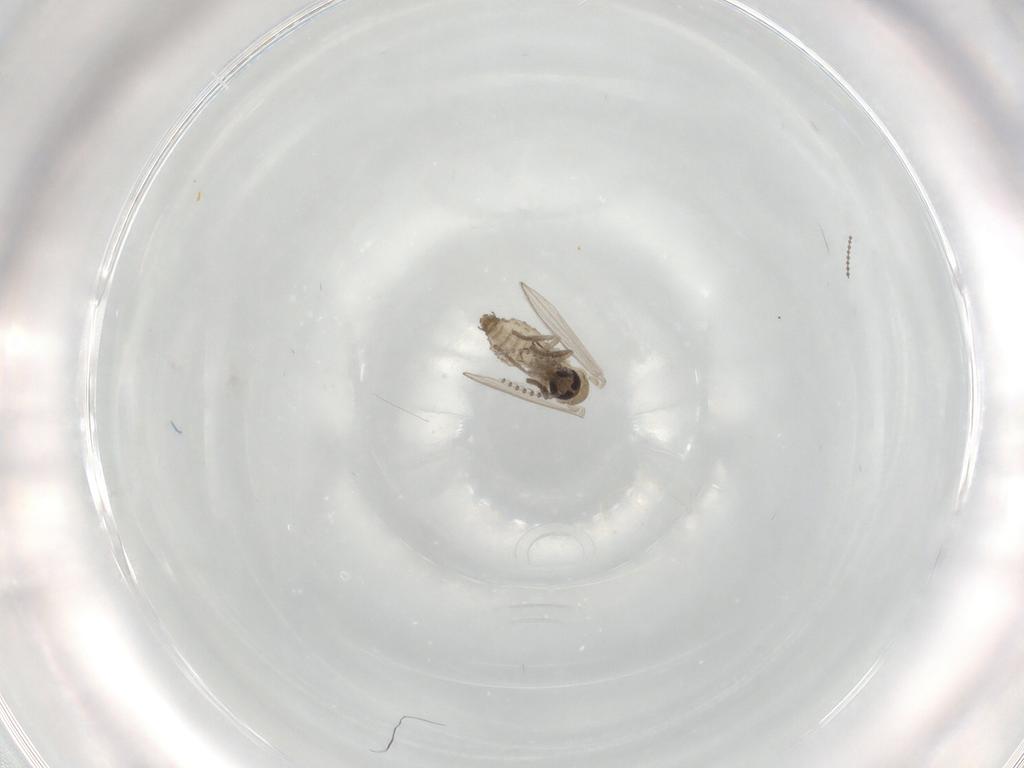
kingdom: Animalia
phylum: Arthropoda
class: Insecta
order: Diptera
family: Psychodidae
